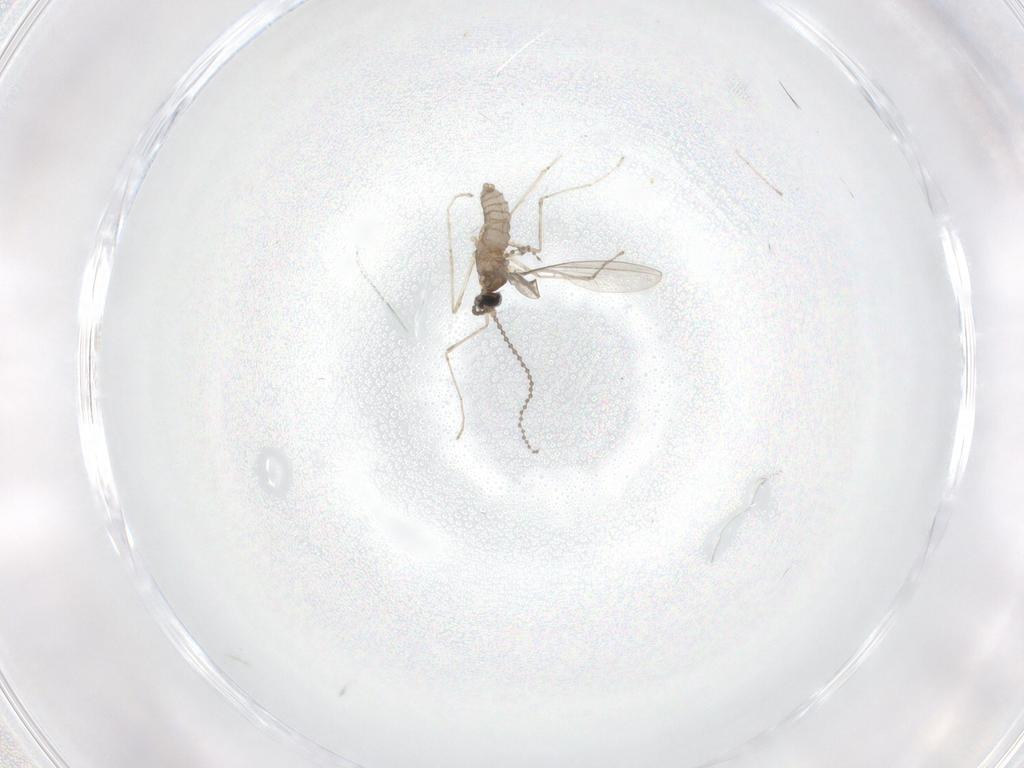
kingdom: Animalia
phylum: Arthropoda
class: Insecta
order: Diptera
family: Cecidomyiidae
